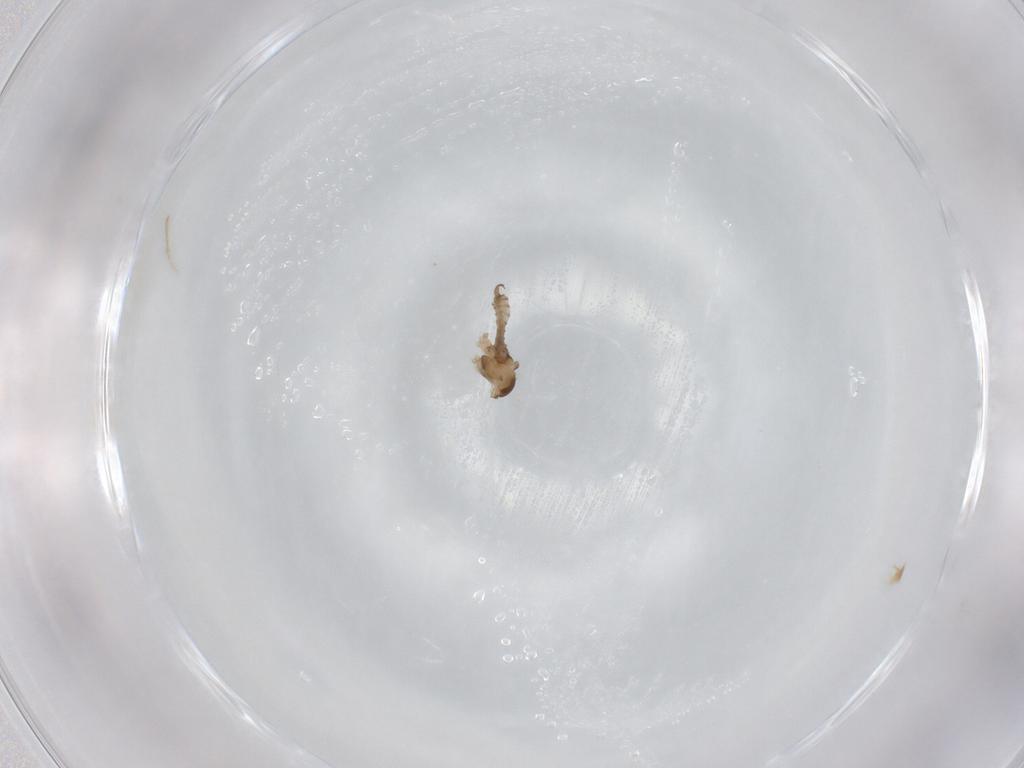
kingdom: Animalia
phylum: Arthropoda
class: Insecta
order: Diptera
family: Cecidomyiidae
